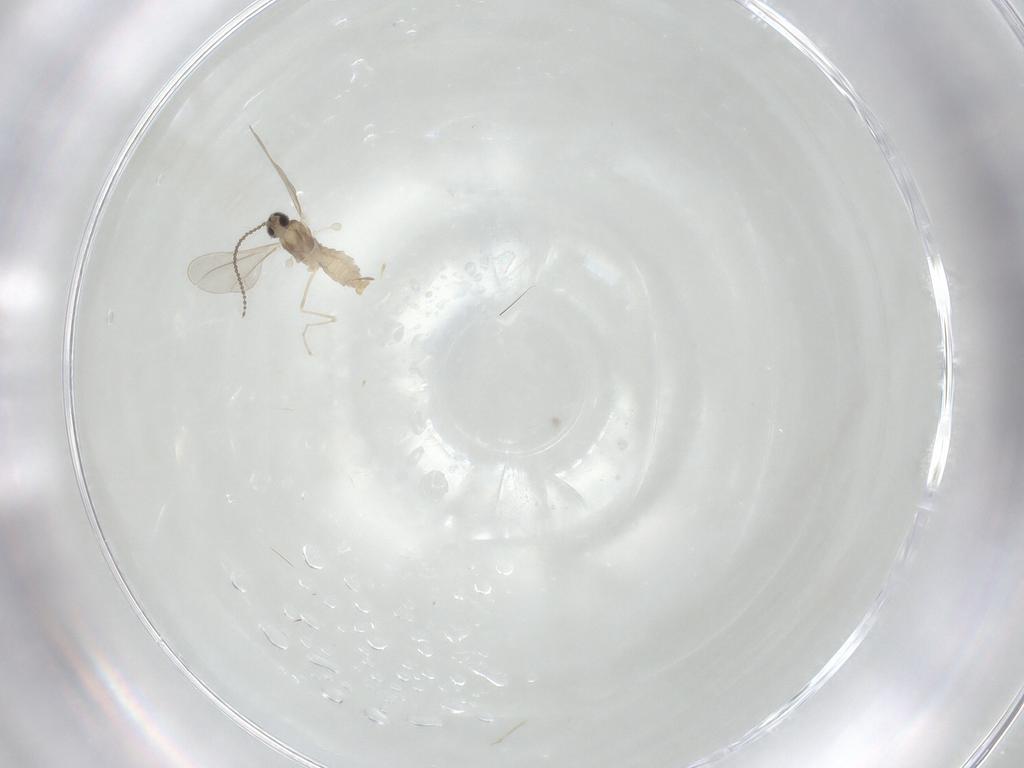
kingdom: Animalia
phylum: Arthropoda
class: Insecta
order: Diptera
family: Cecidomyiidae
